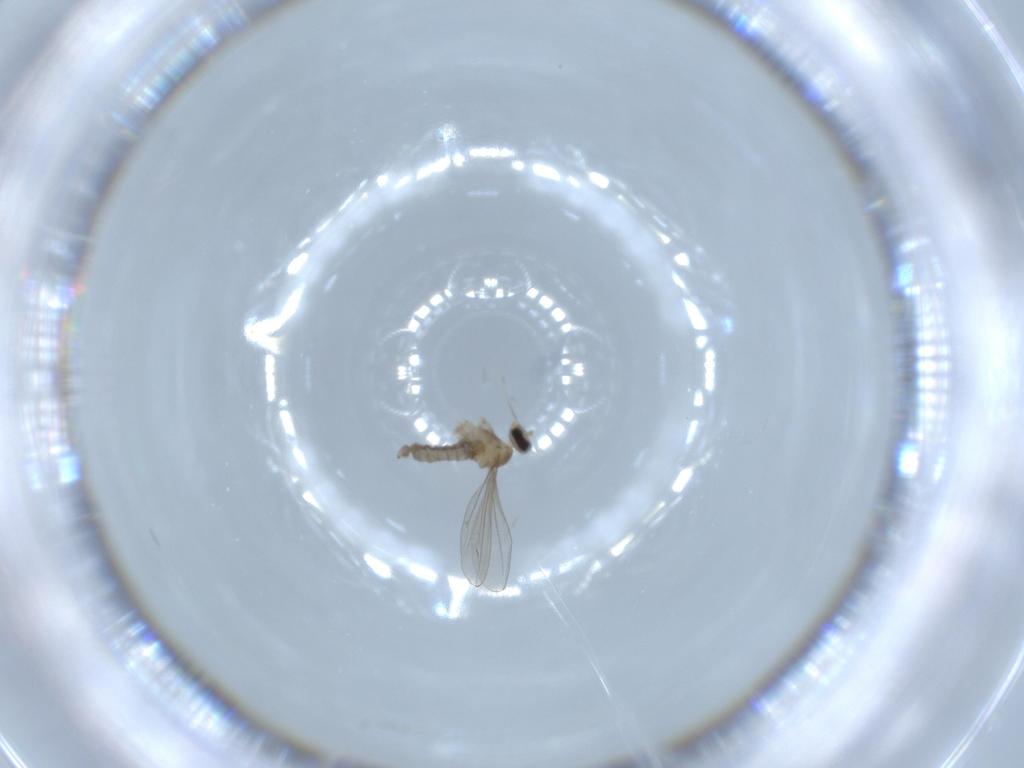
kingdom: Animalia
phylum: Arthropoda
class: Insecta
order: Diptera
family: Cecidomyiidae
